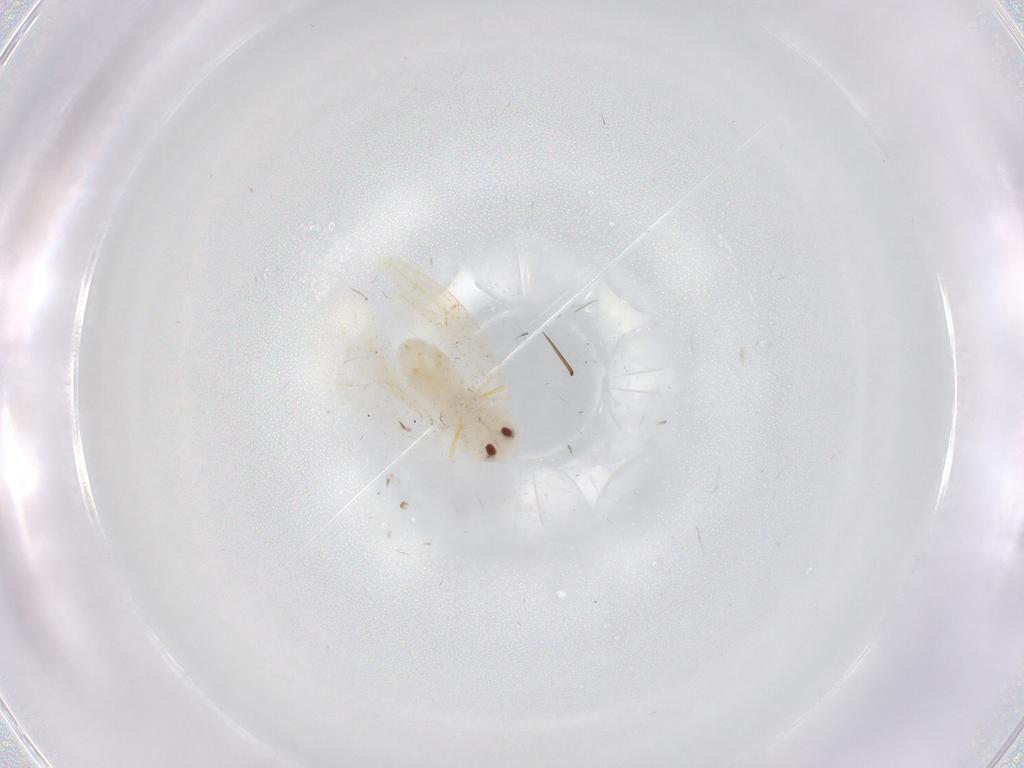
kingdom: Animalia
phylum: Arthropoda
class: Insecta
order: Hemiptera
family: Aleyrodidae
